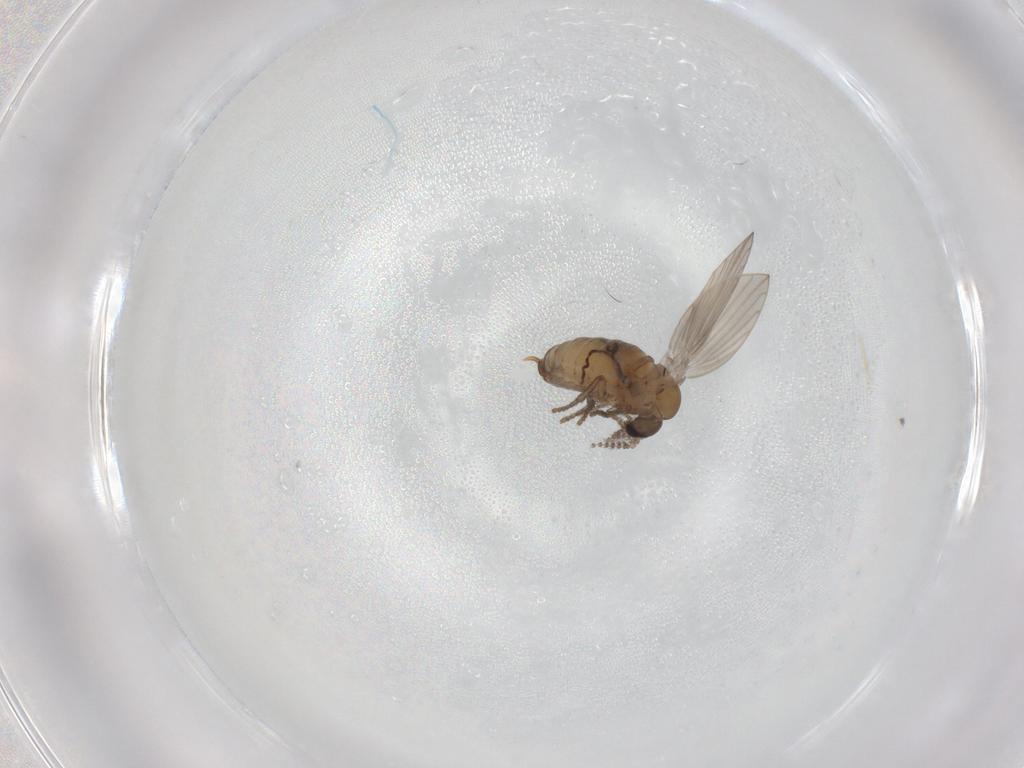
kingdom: Animalia
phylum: Arthropoda
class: Insecta
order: Diptera
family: Psychodidae
